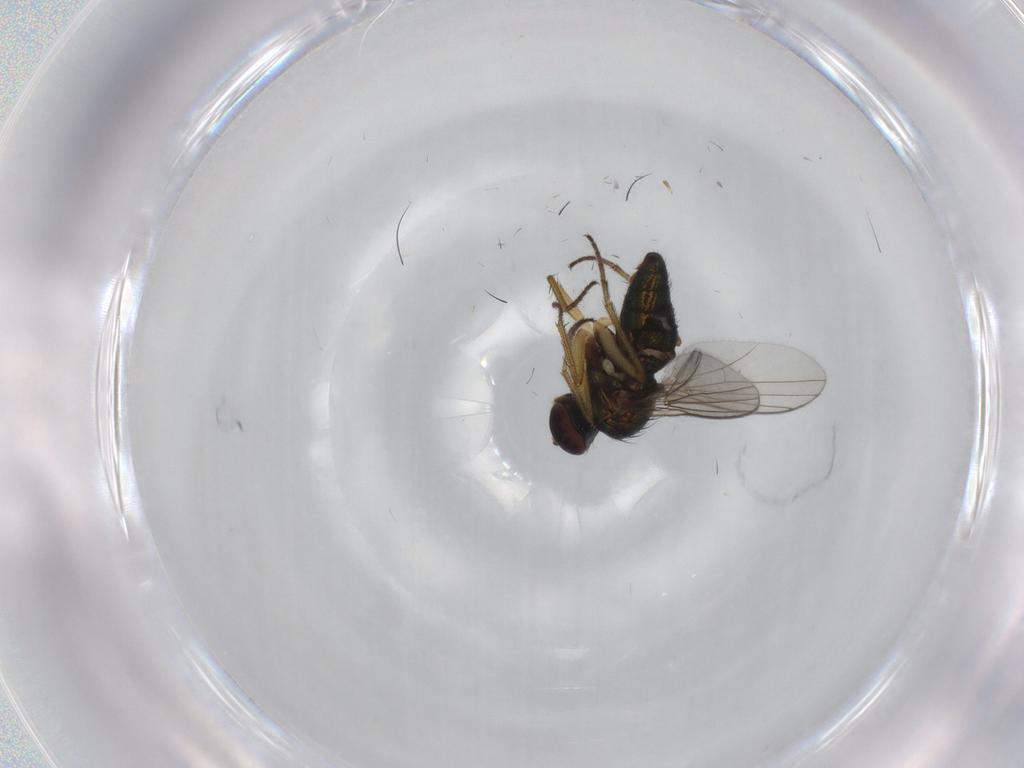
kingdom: Animalia
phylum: Arthropoda
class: Insecta
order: Diptera
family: Dolichopodidae
